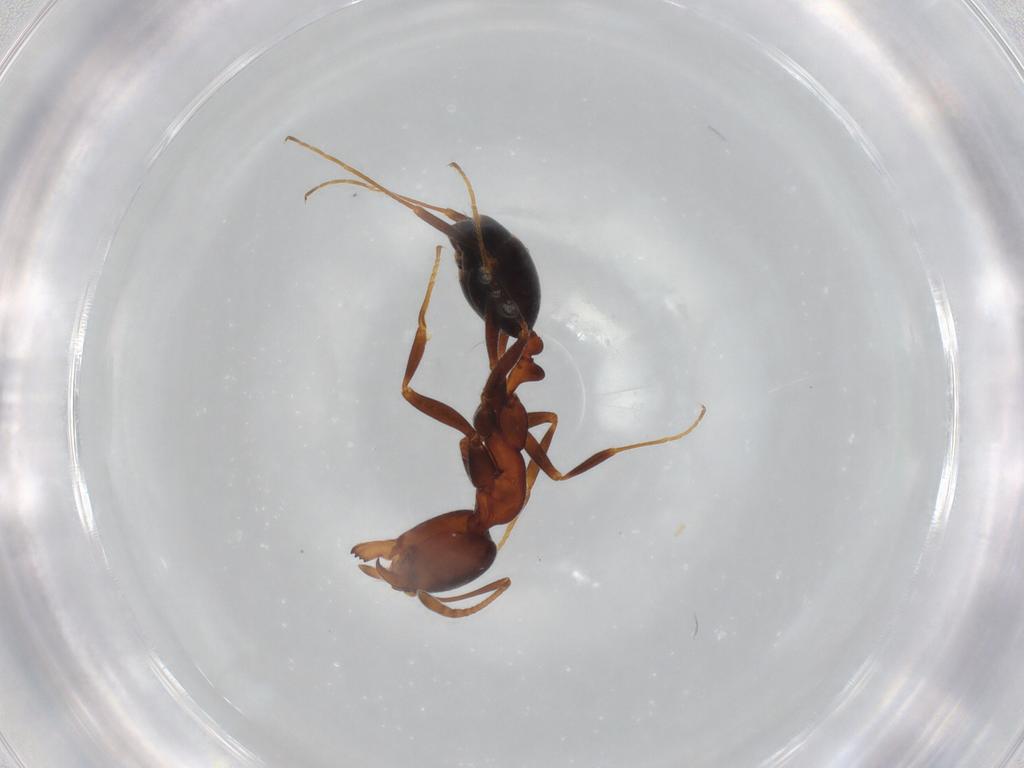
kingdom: Animalia
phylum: Arthropoda
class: Insecta
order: Hymenoptera
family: Formicidae
